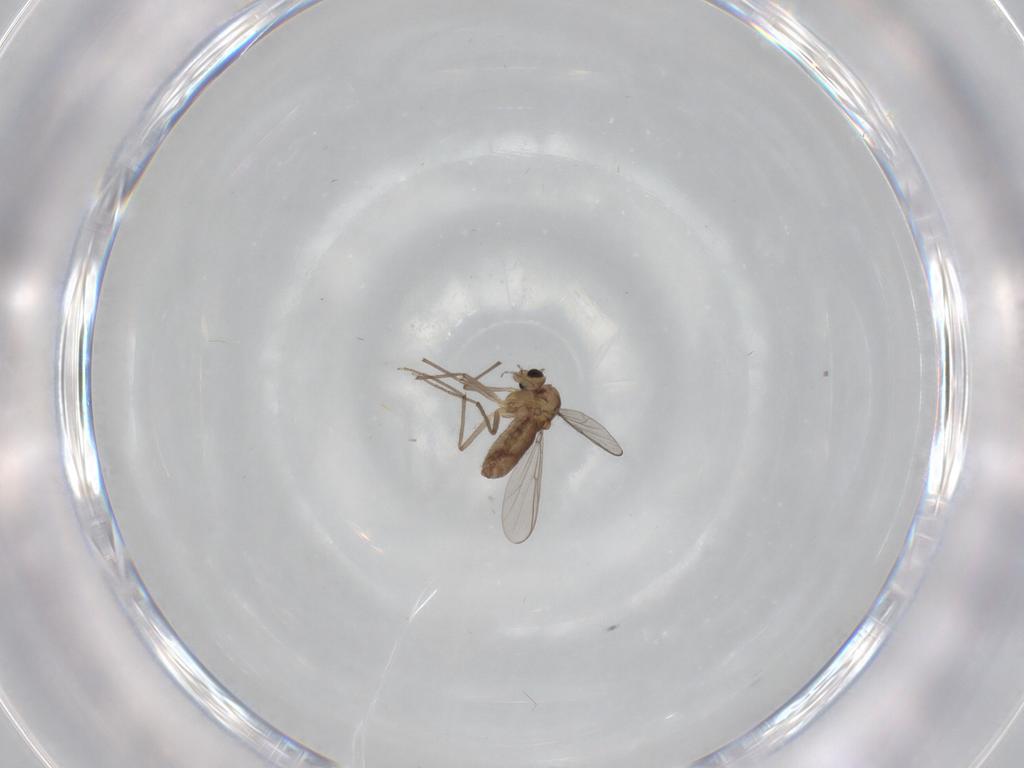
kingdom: Animalia
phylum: Arthropoda
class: Insecta
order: Diptera
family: Chironomidae
